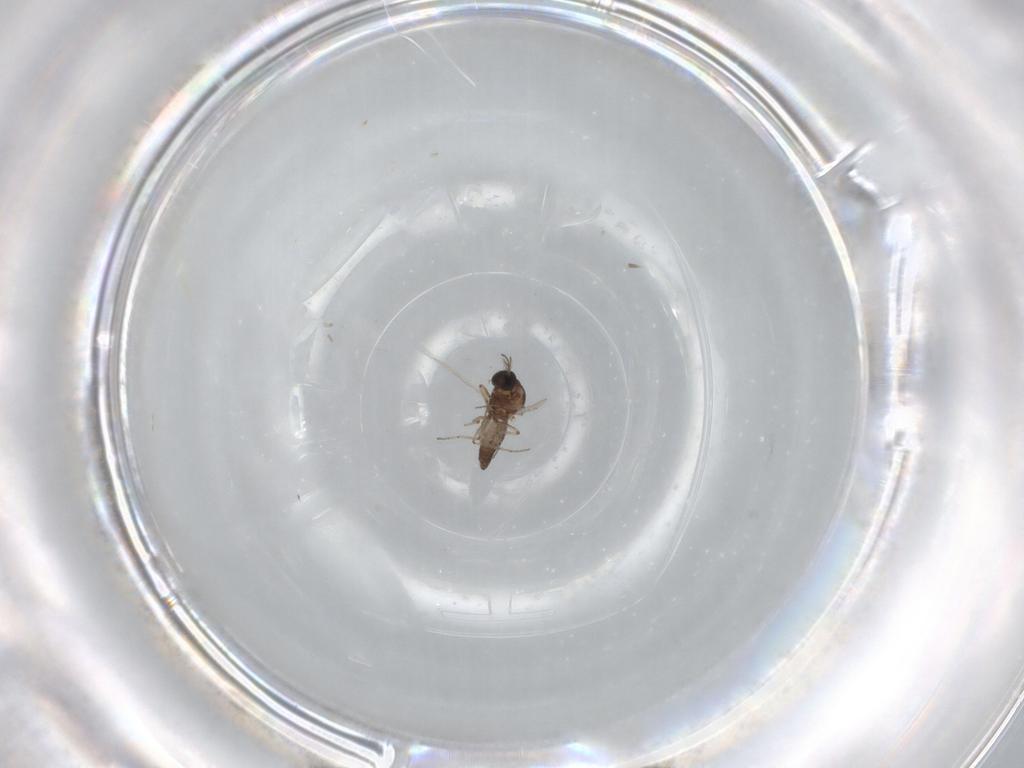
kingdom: Animalia
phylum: Arthropoda
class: Insecta
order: Diptera
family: Ceratopogonidae
